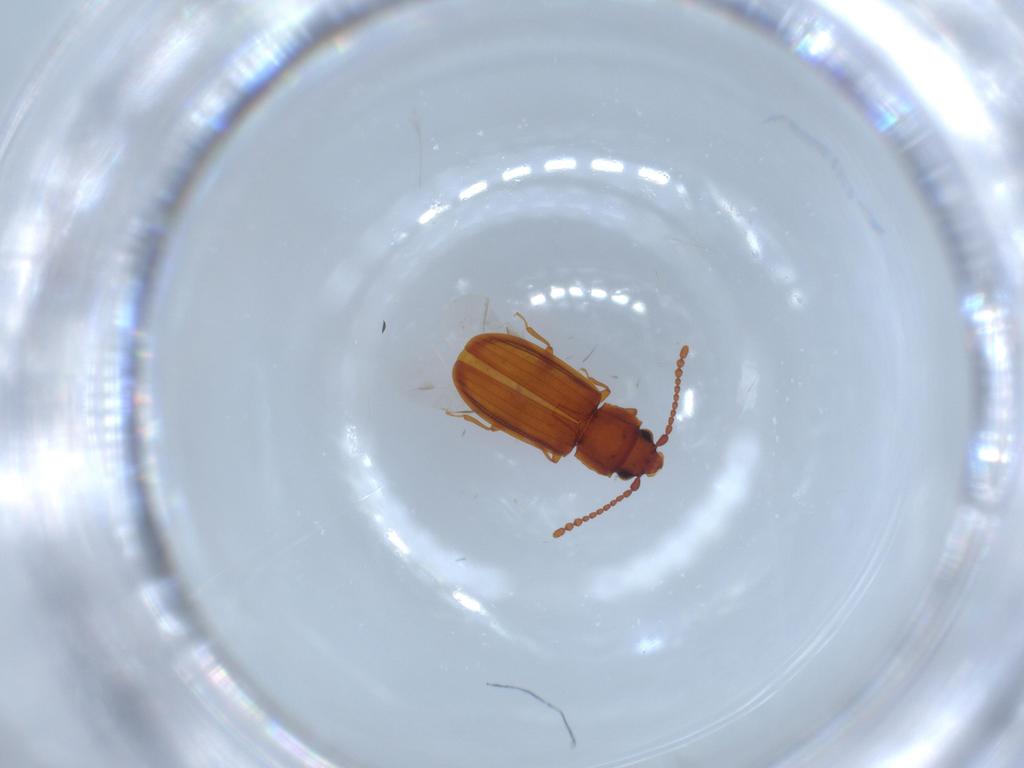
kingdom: Animalia
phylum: Arthropoda
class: Insecta
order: Coleoptera
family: Laemophloeidae
